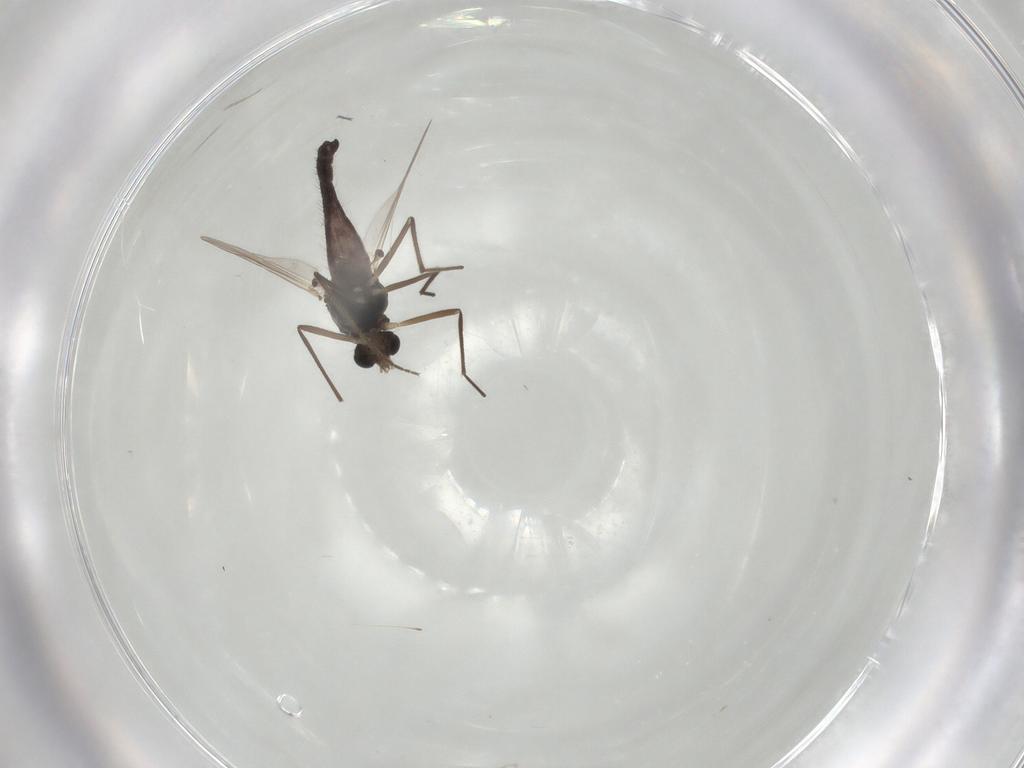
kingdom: Animalia
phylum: Arthropoda
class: Insecta
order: Diptera
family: Chironomidae
